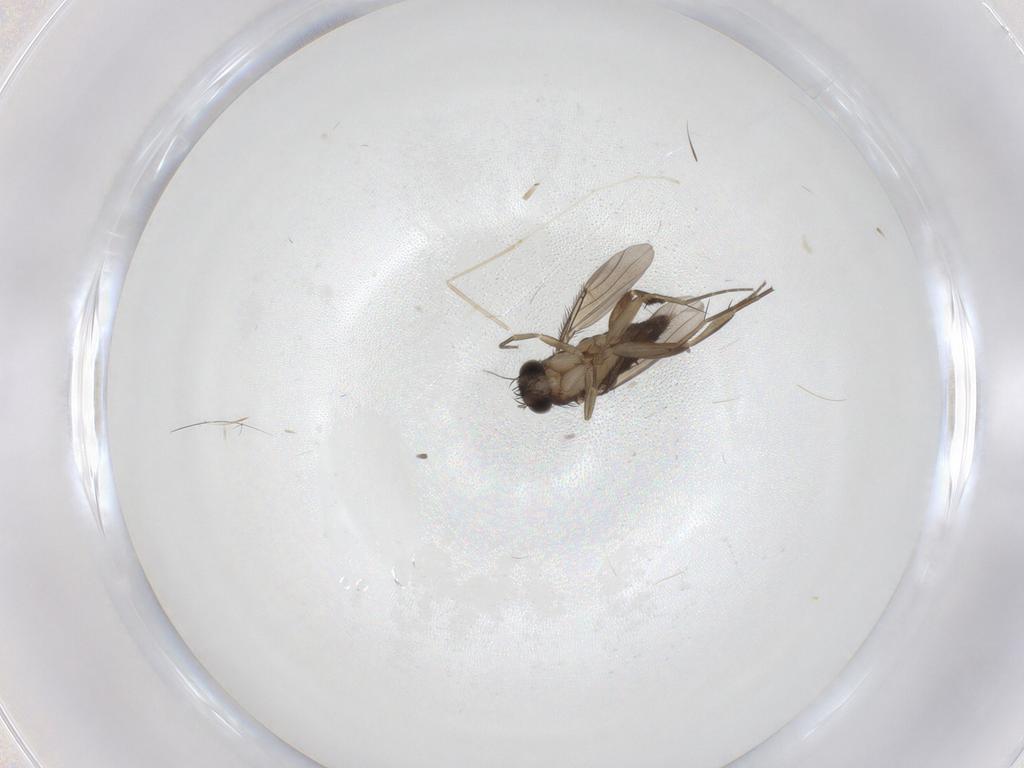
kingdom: Animalia
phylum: Arthropoda
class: Insecta
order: Diptera
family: Phoridae
